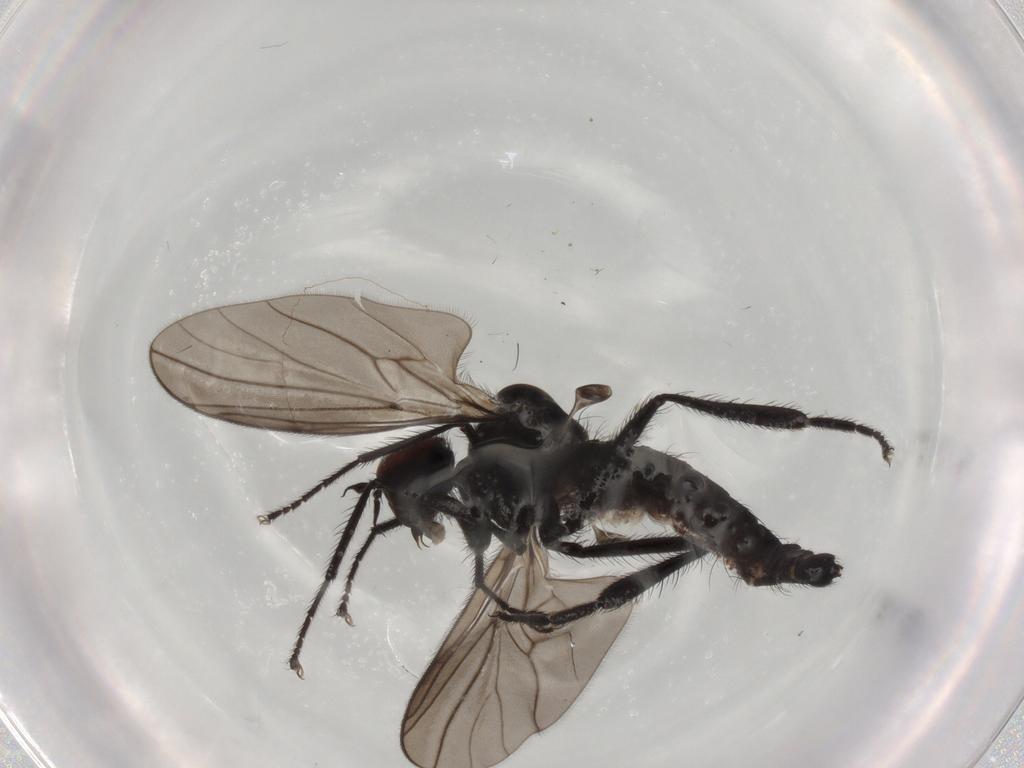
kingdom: Animalia
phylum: Arthropoda
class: Insecta
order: Diptera
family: Hybotidae
